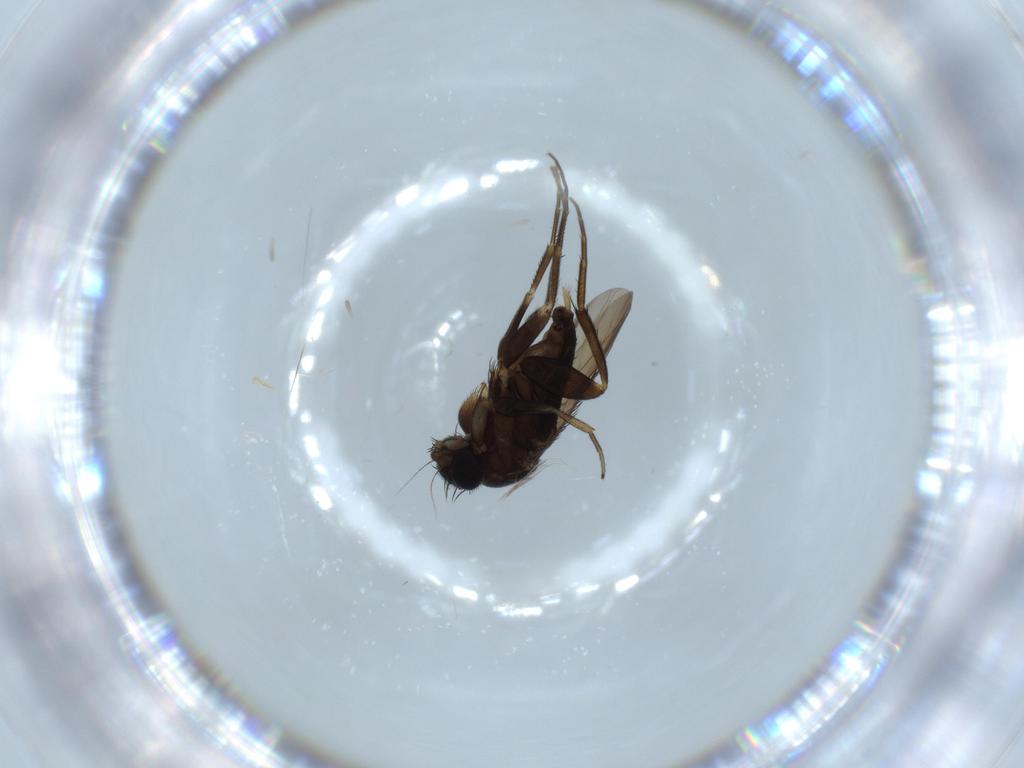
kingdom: Animalia
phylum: Arthropoda
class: Insecta
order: Diptera
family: Phoridae
